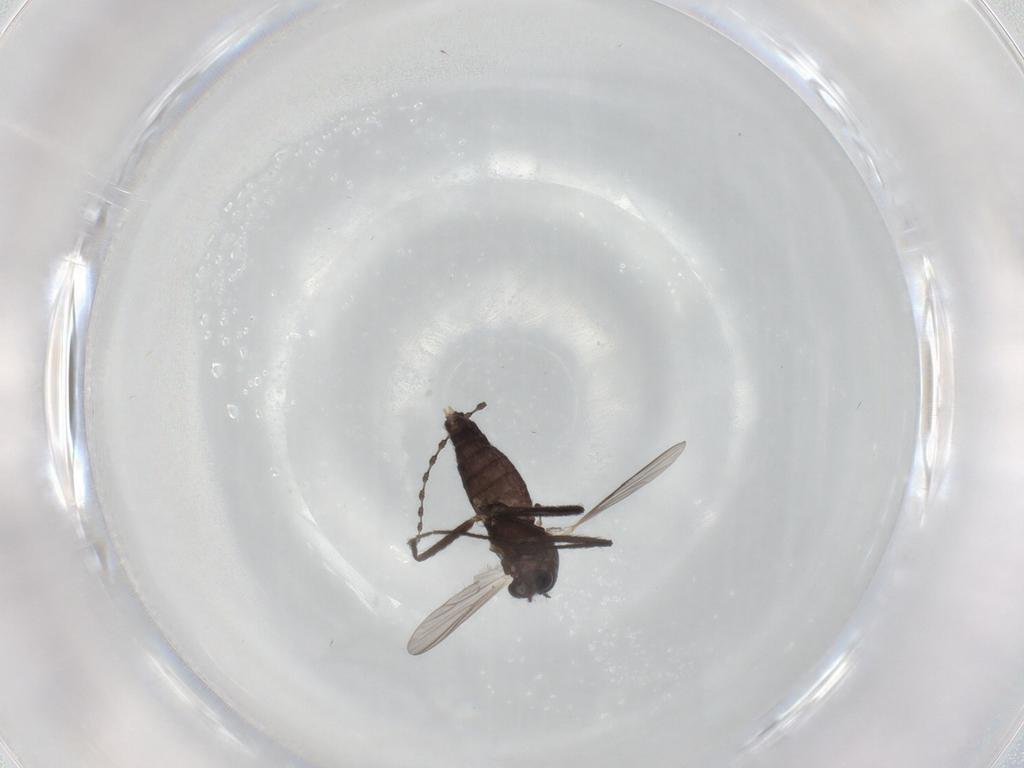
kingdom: Animalia
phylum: Arthropoda
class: Insecta
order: Diptera
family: Chironomidae
